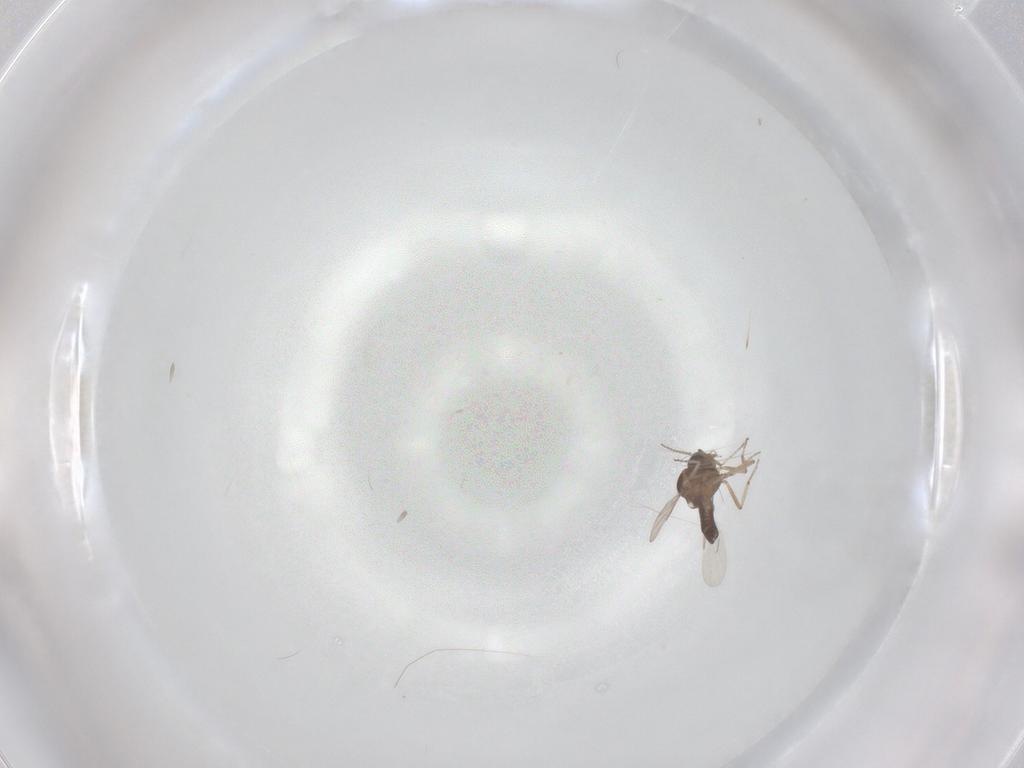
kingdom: Animalia
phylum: Arthropoda
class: Insecta
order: Diptera
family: Ceratopogonidae
